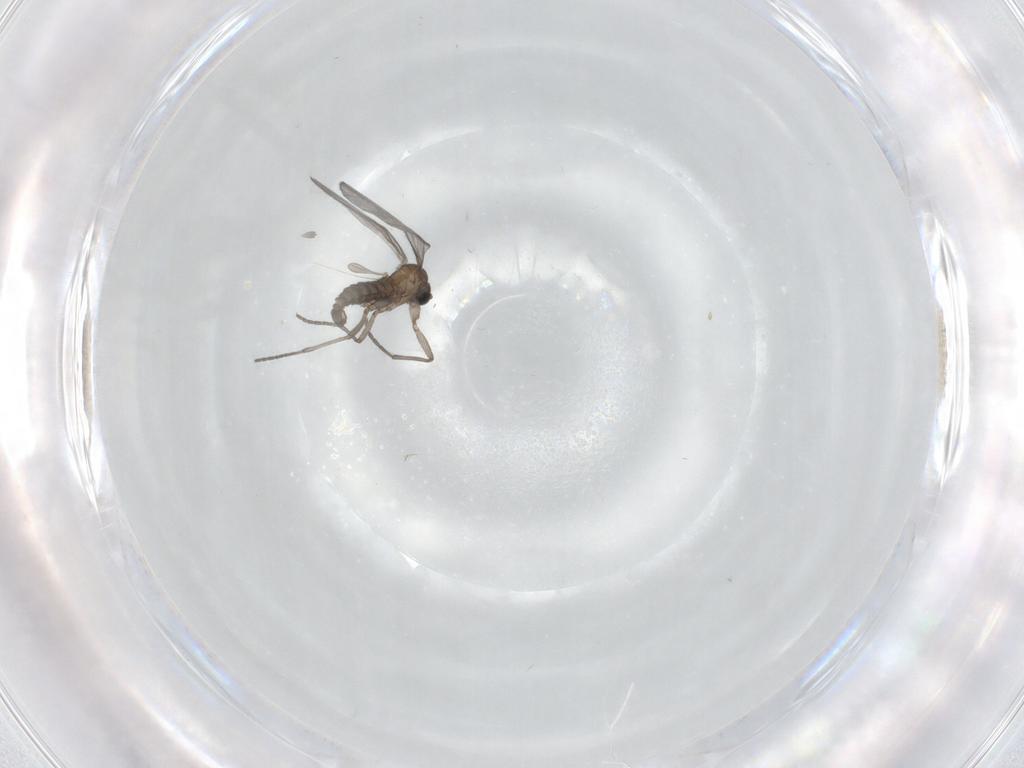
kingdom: Animalia
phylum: Arthropoda
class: Insecta
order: Diptera
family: Sciaridae
